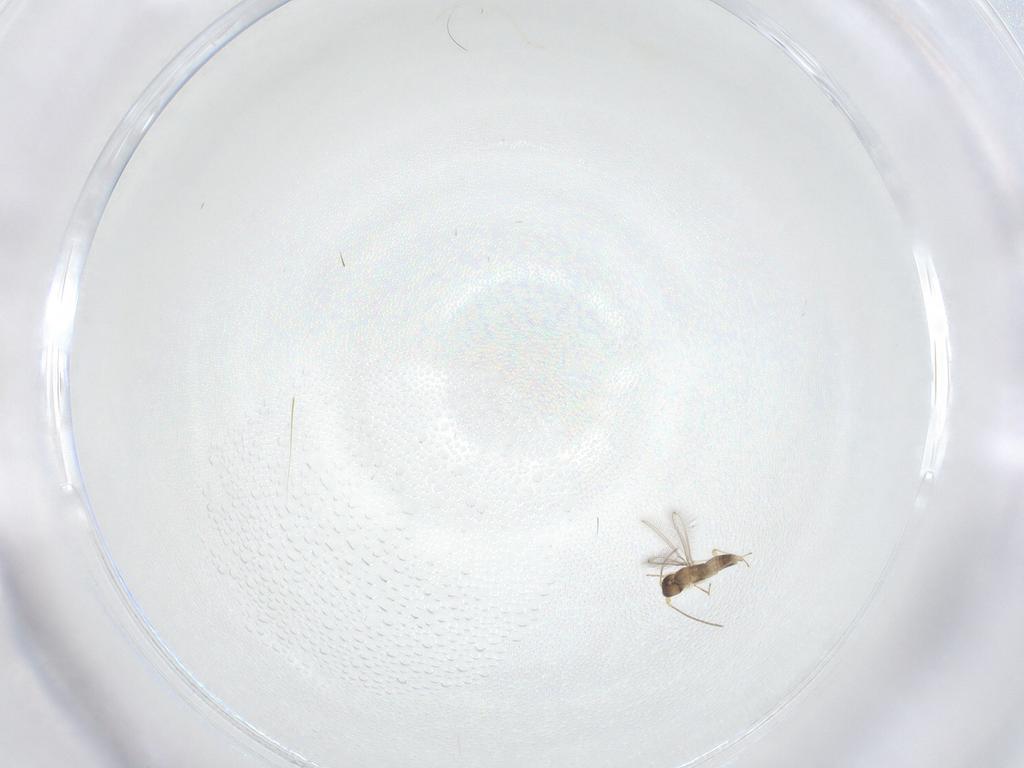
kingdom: Animalia
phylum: Arthropoda
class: Insecta
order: Hymenoptera
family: Mymaridae
